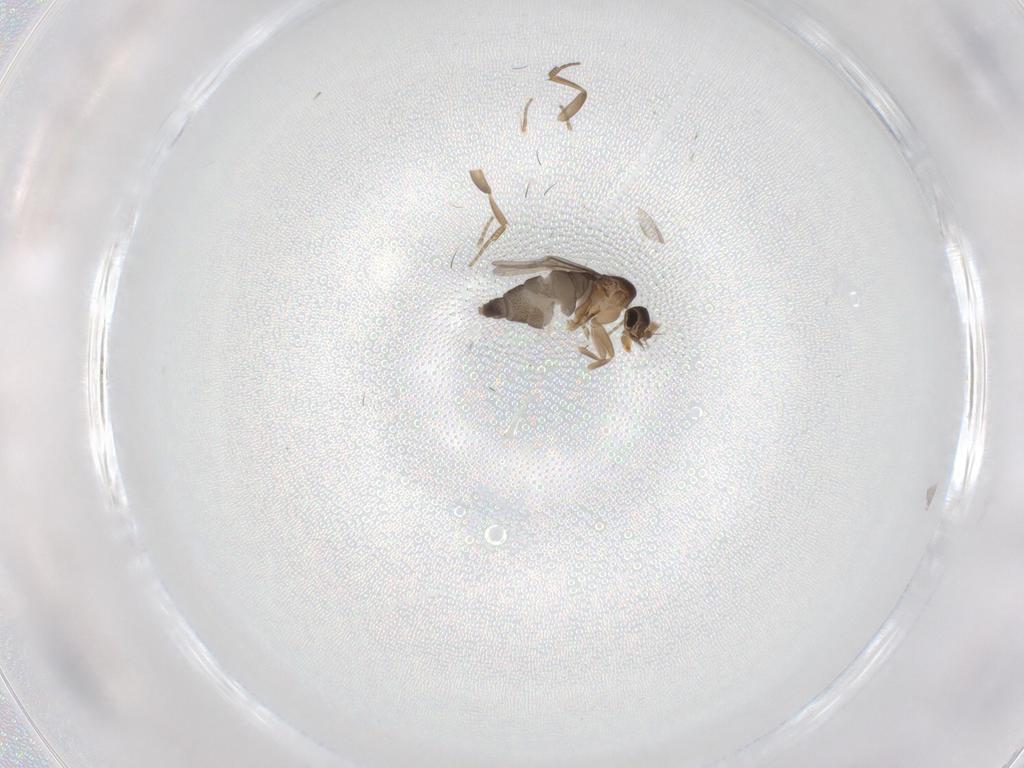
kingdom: Animalia
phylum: Arthropoda
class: Insecta
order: Diptera
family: Phoridae
